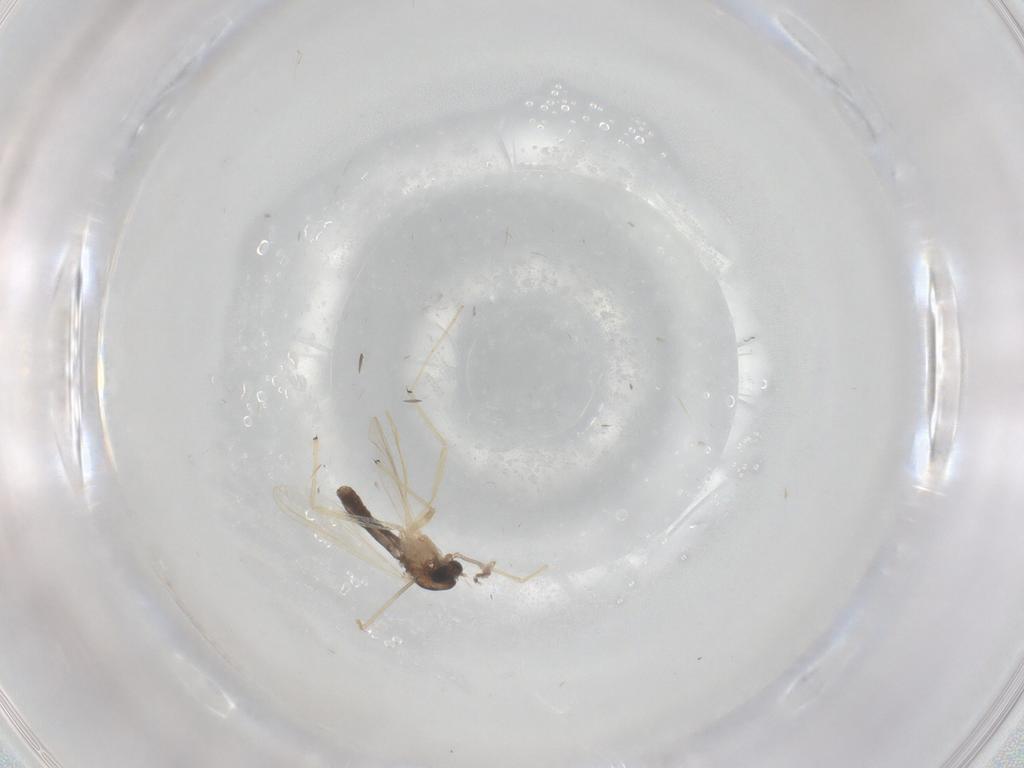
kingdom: Animalia
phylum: Arthropoda
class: Insecta
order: Diptera
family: Chironomidae
